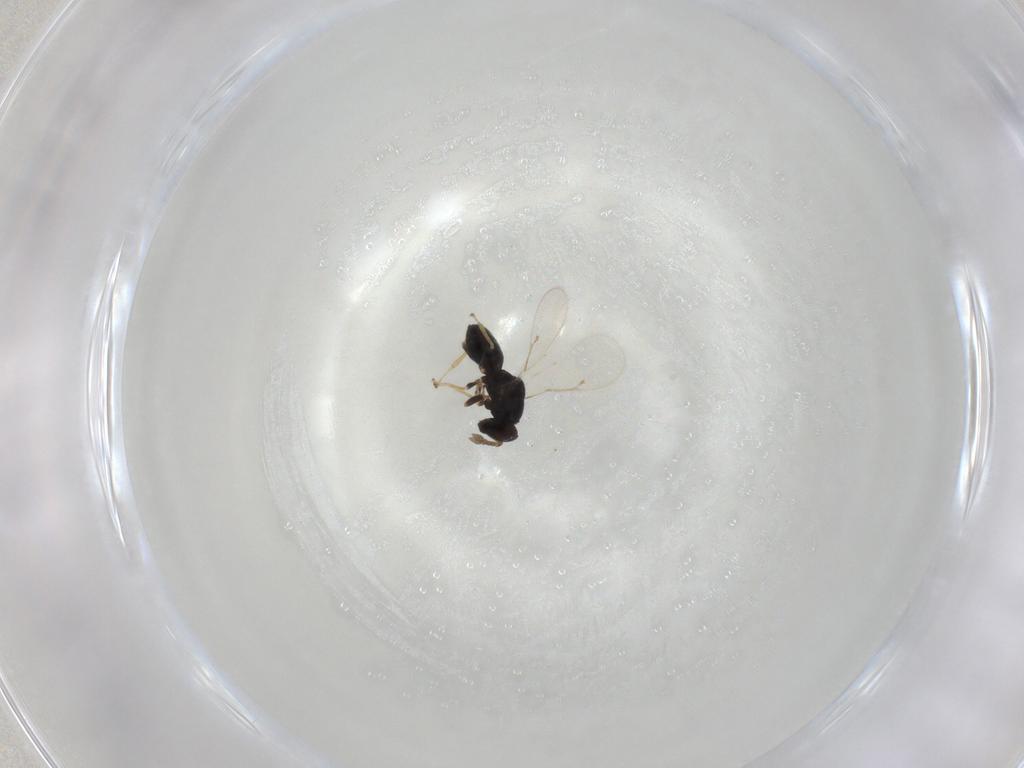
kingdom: Animalia
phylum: Arthropoda
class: Insecta
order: Hymenoptera
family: Eulophidae
